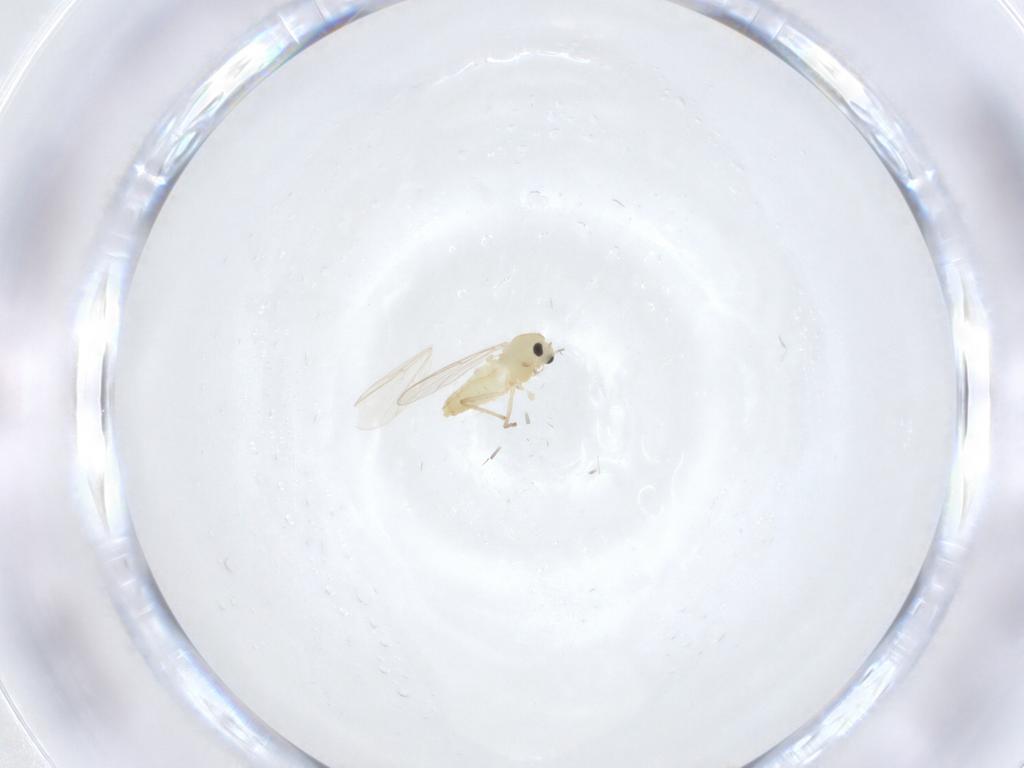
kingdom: Animalia
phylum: Arthropoda
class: Insecta
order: Diptera
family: Chironomidae
